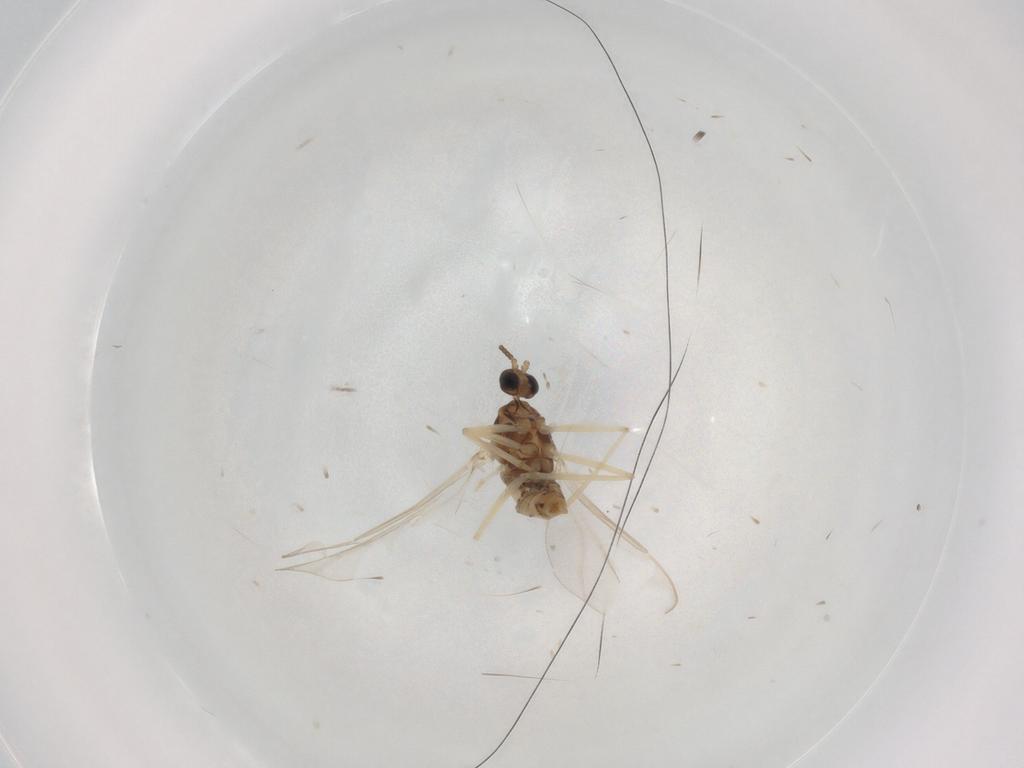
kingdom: Animalia
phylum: Arthropoda
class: Insecta
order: Diptera
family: Cecidomyiidae
